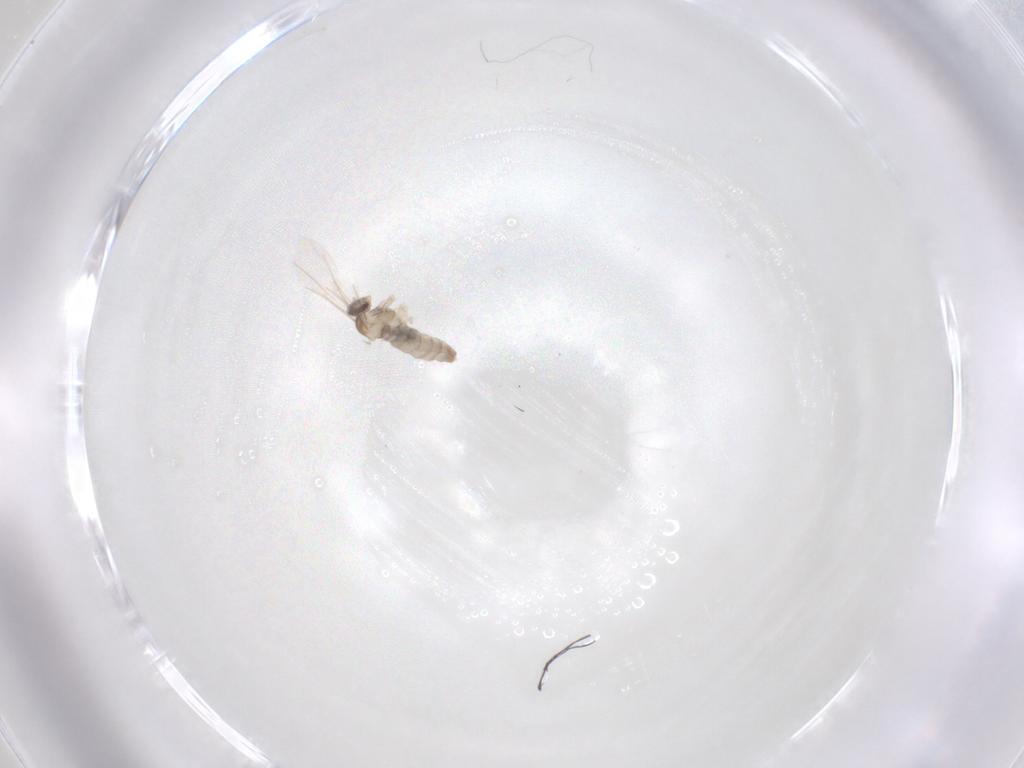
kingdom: Animalia
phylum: Arthropoda
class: Insecta
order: Diptera
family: Cecidomyiidae
